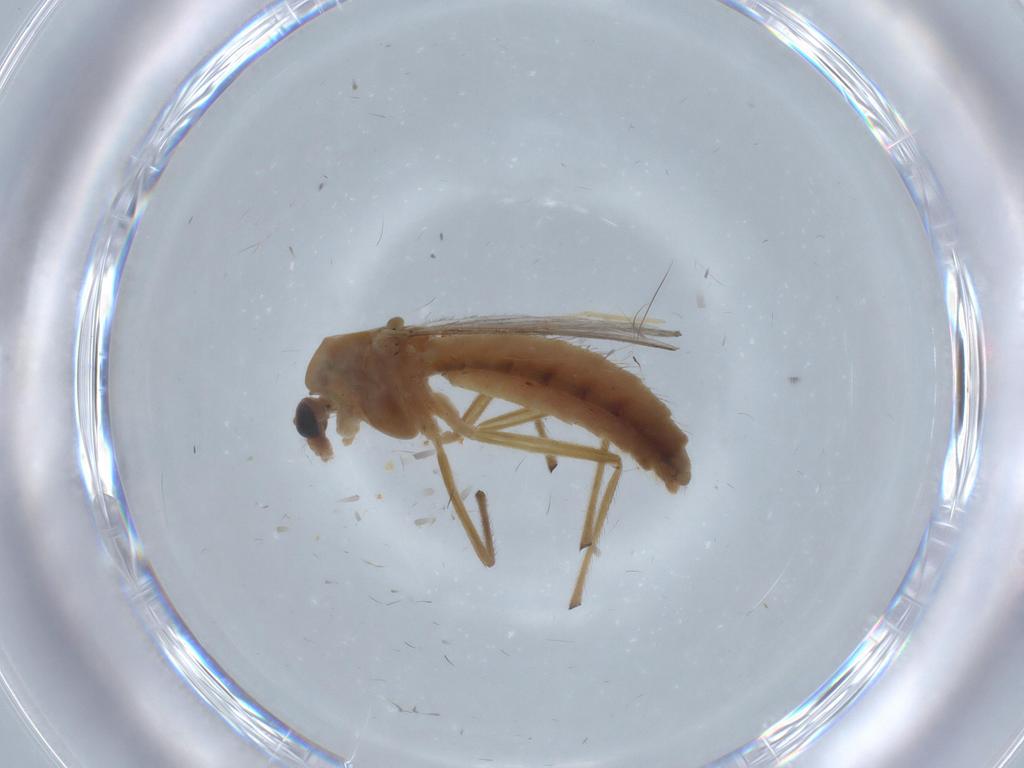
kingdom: Animalia
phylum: Arthropoda
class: Insecta
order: Diptera
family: Chironomidae
